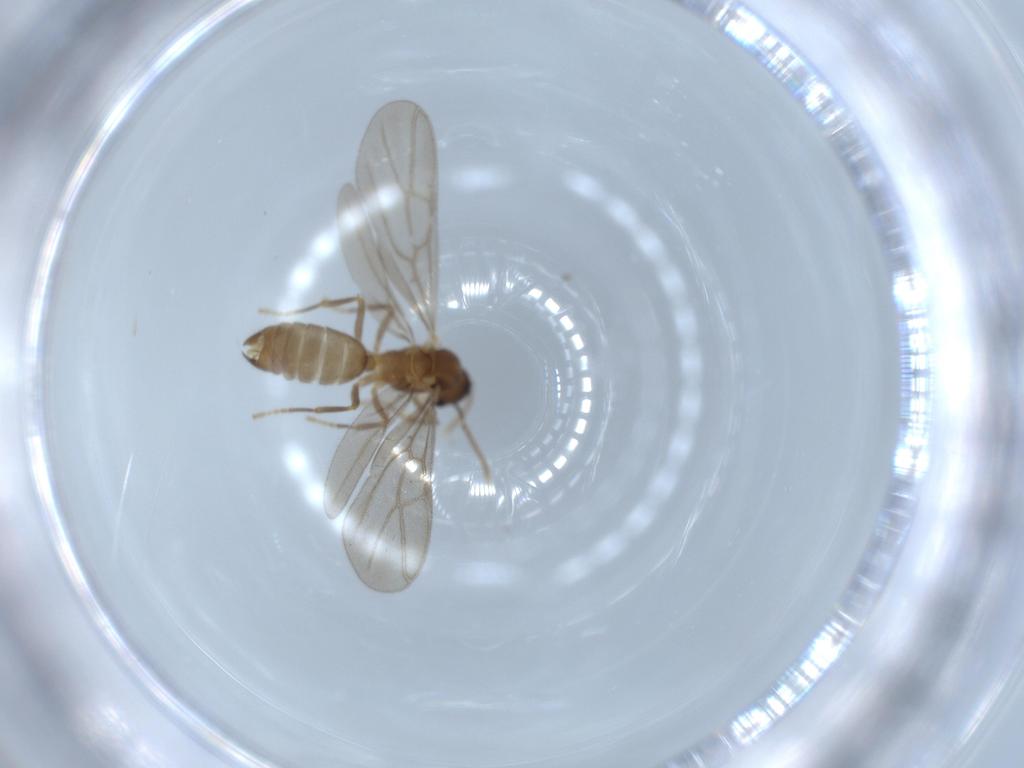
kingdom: Animalia
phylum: Arthropoda
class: Insecta
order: Hymenoptera
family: Formicidae
